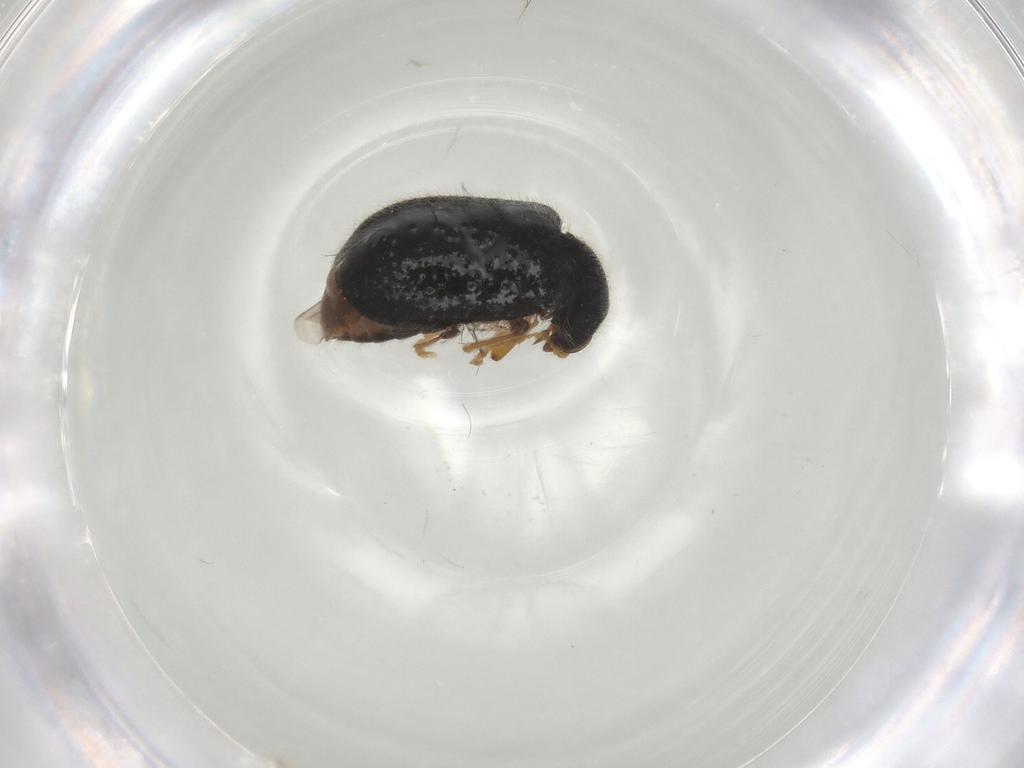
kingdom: Animalia
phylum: Arthropoda
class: Insecta
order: Coleoptera
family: Cleridae
